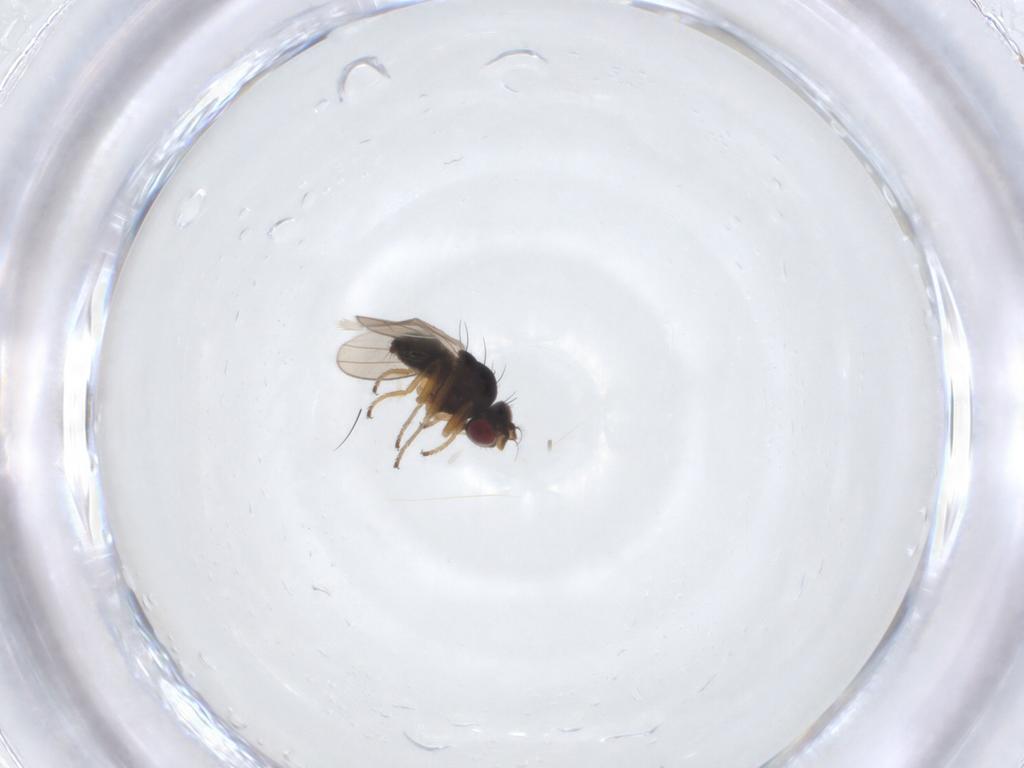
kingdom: Animalia
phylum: Arthropoda
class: Insecta
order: Diptera
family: Ephydridae
